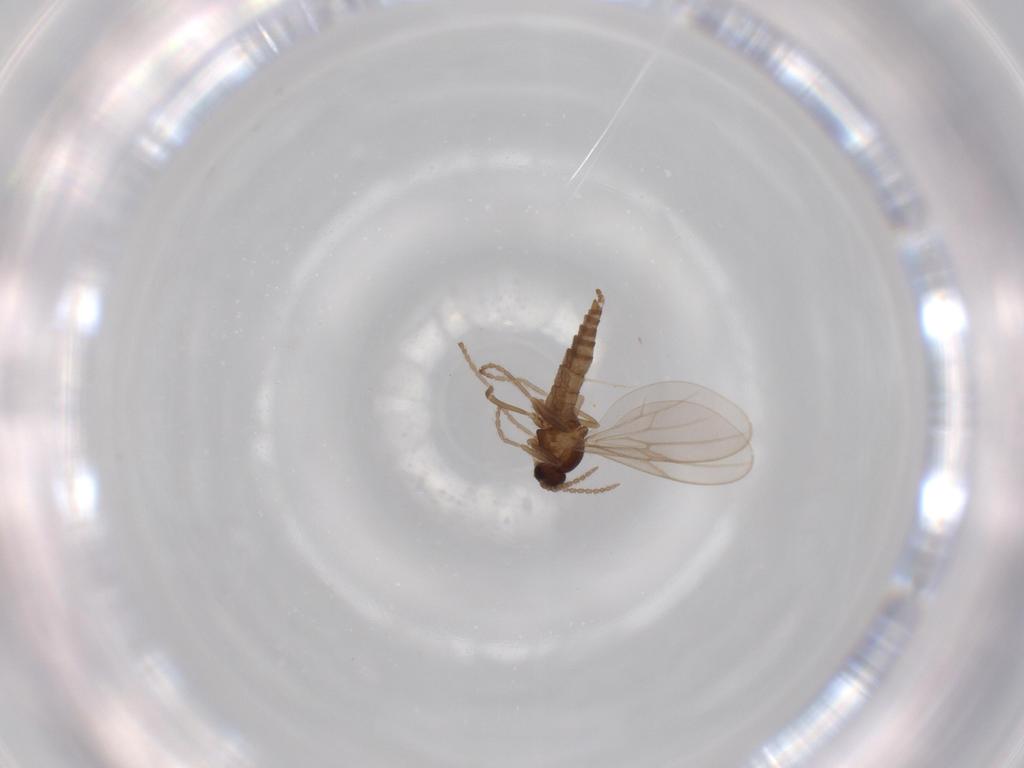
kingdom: Animalia
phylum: Arthropoda
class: Insecta
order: Diptera
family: Cecidomyiidae
